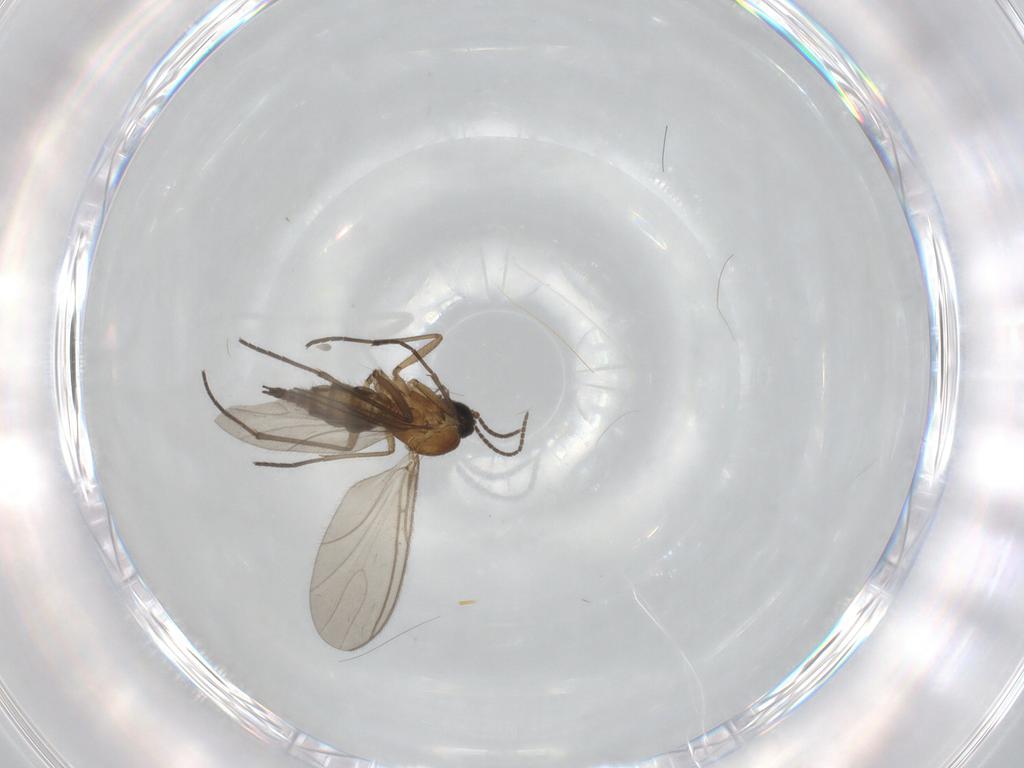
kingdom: Animalia
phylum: Arthropoda
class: Insecta
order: Diptera
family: Sciaridae
